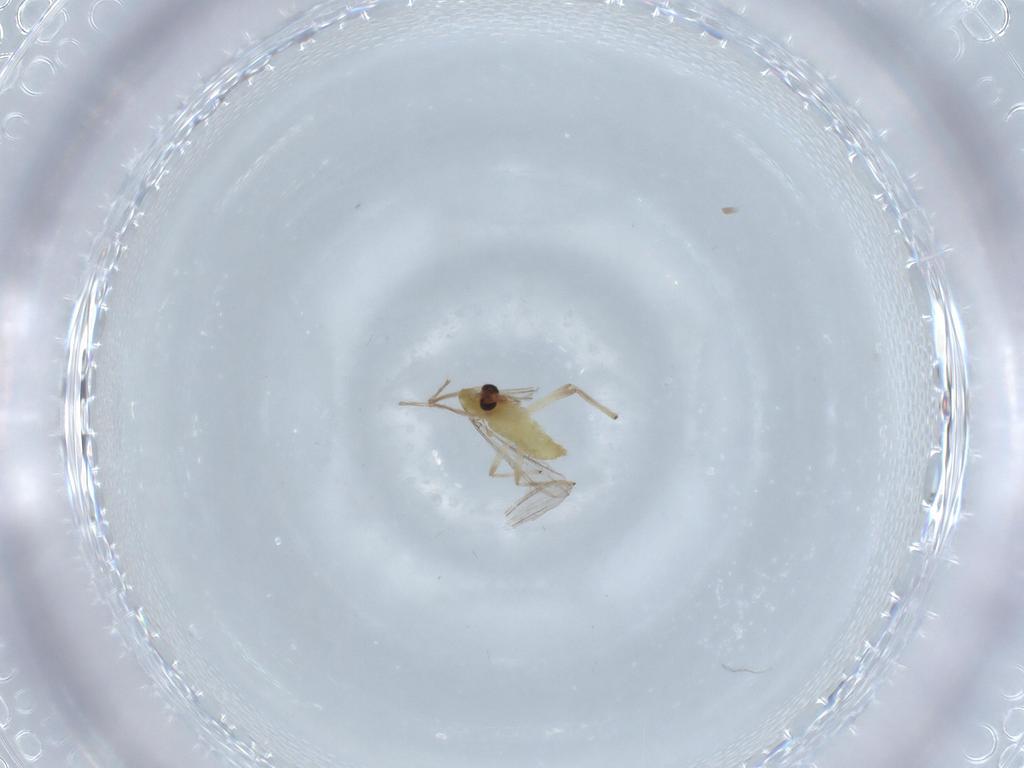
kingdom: Animalia
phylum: Arthropoda
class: Insecta
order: Diptera
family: Chironomidae
